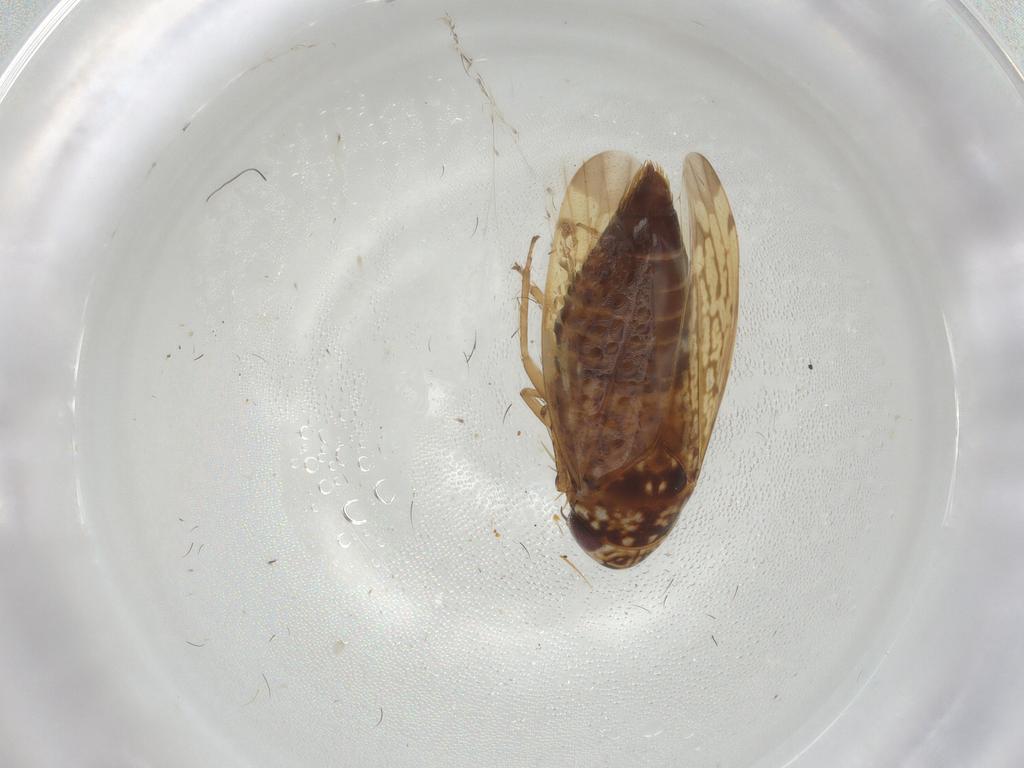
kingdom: Animalia
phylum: Arthropoda
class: Insecta
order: Hemiptera
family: Cicadellidae
